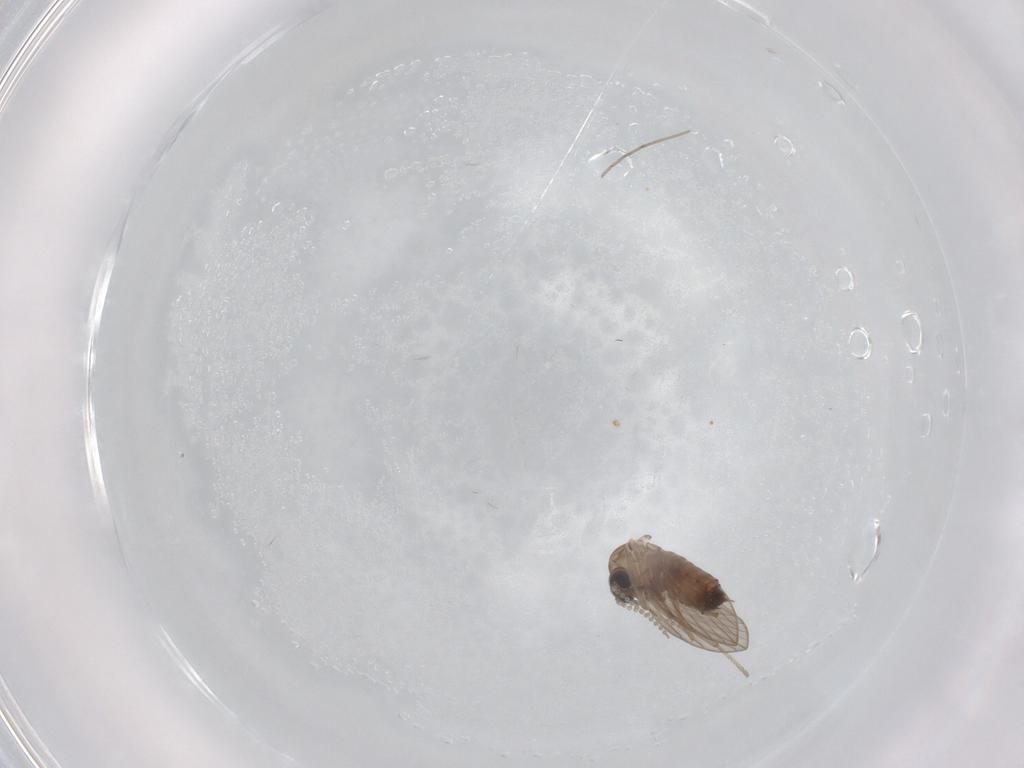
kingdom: Animalia
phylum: Arthropoda
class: Insecta
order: Diptera
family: Psychodidae
